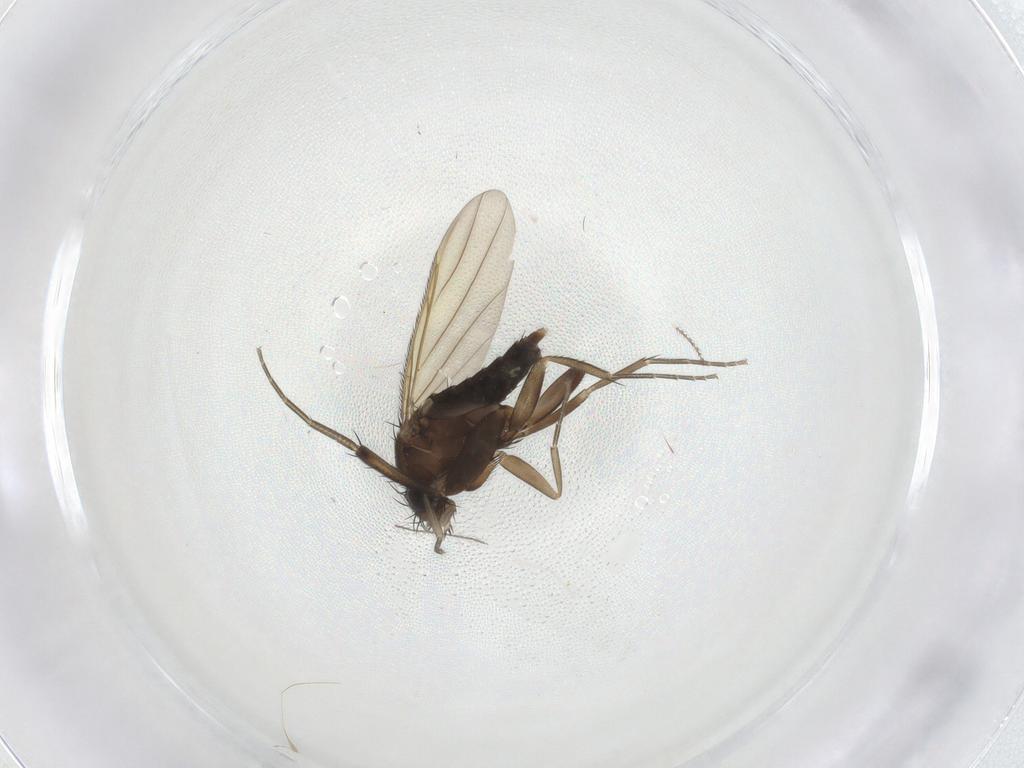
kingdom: Animalia
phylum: Arthropoda
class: Insecta
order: Diptera
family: Phoridae
